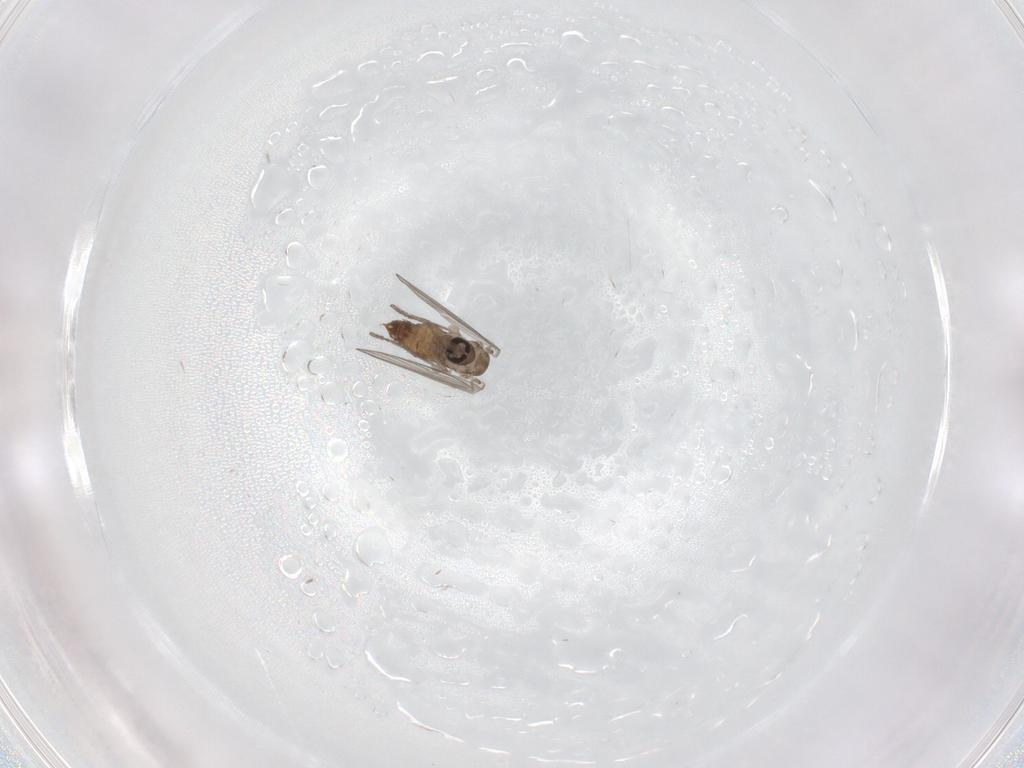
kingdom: Animalia
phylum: Arthropoda
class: Insecta
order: Diptera
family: Psychodidae
